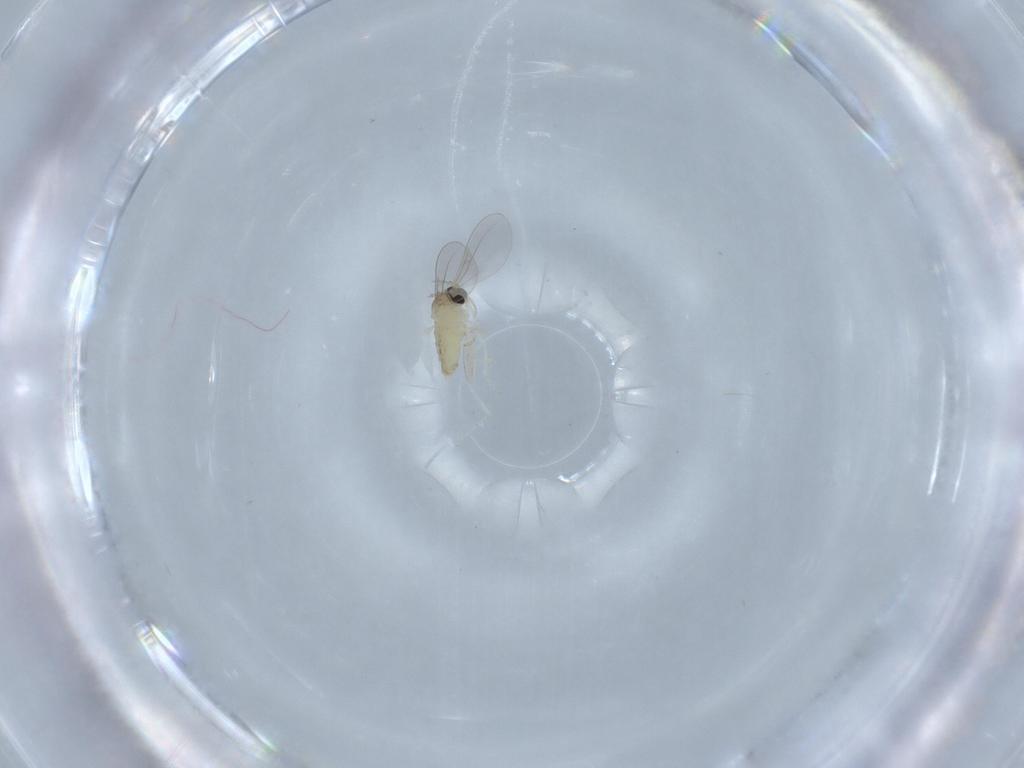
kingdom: Animalia
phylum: Arthropoda
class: Insecta
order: Diptera
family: Cecidomyiidae
